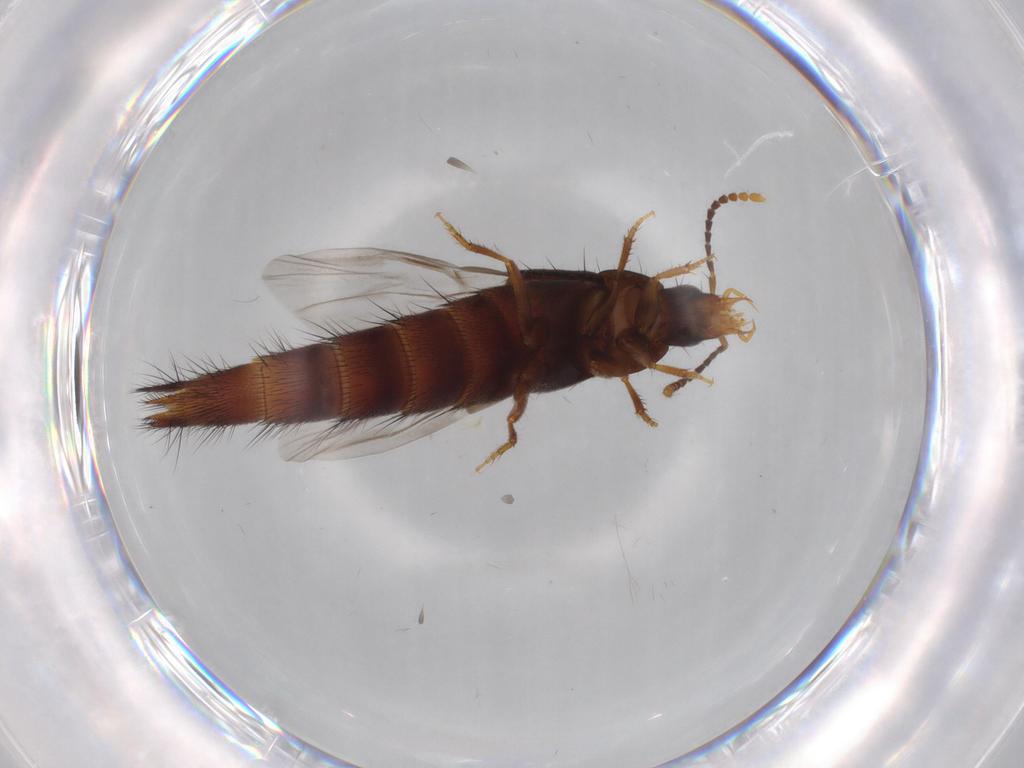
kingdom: Animalia
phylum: Arthropoda
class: Insecta
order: Coleoptera
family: Staphylinidae
